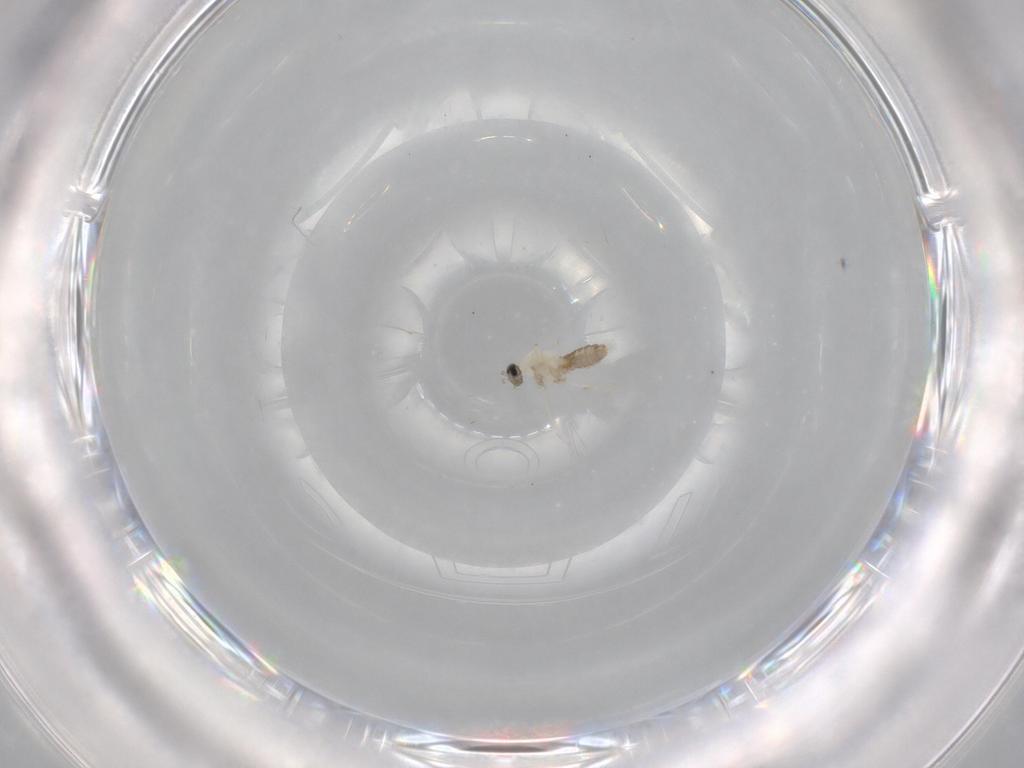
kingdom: Animalia
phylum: Arthropoda
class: Insecta
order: Diptera
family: Cecidomyiidae
